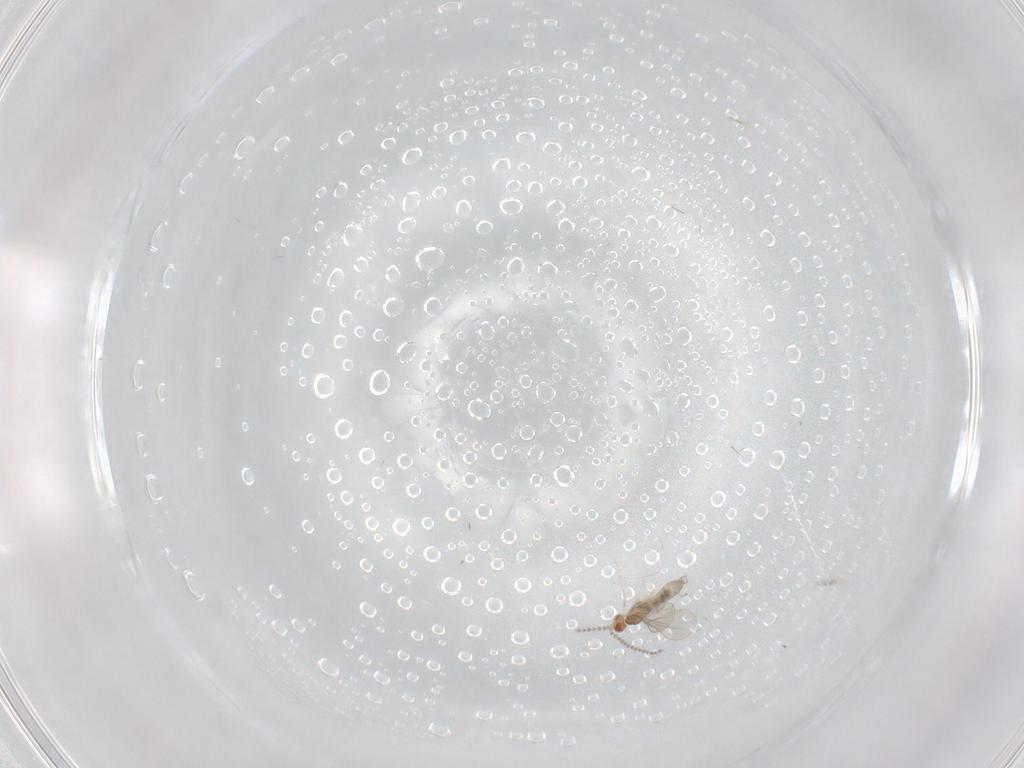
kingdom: Animalia
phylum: Arthropoda
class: Insecta
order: Diptera
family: Cecidomyiidae
